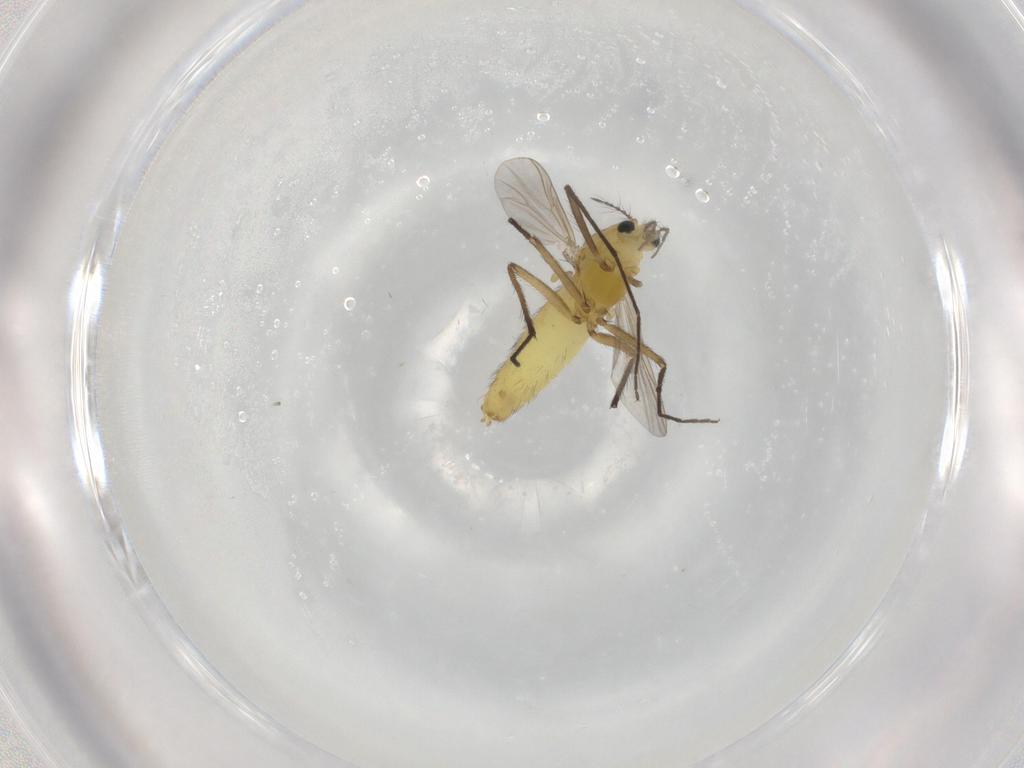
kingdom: Animalia
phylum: Arthropoda
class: Insecta
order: Diptera
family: Chironomidae
